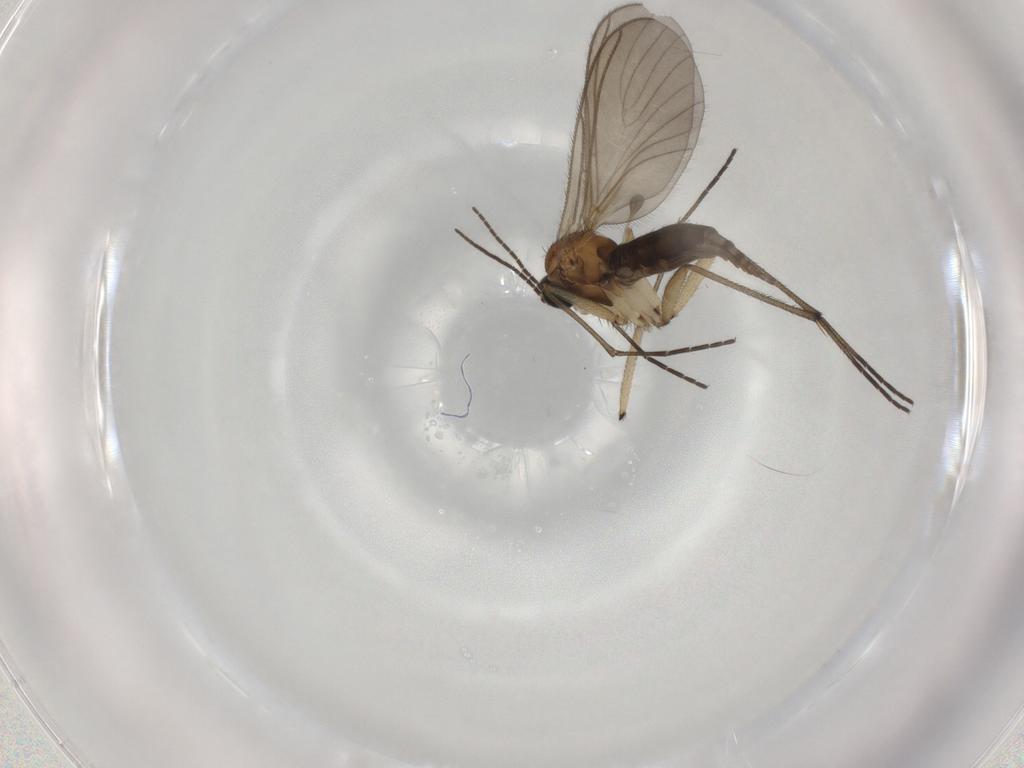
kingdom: Animalia
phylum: Arthropoda
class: Insecta
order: Diptera
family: Sciaridae
